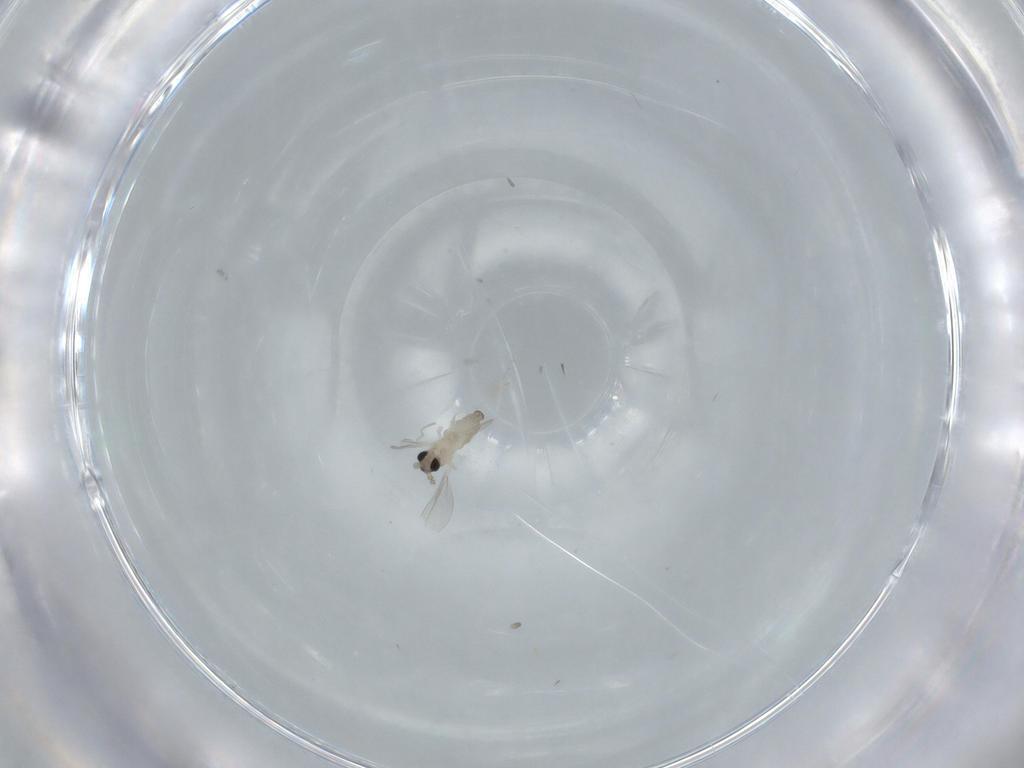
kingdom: Animalia
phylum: Arthropoda
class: Insecta
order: Diptera
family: Cecidomyiidae
